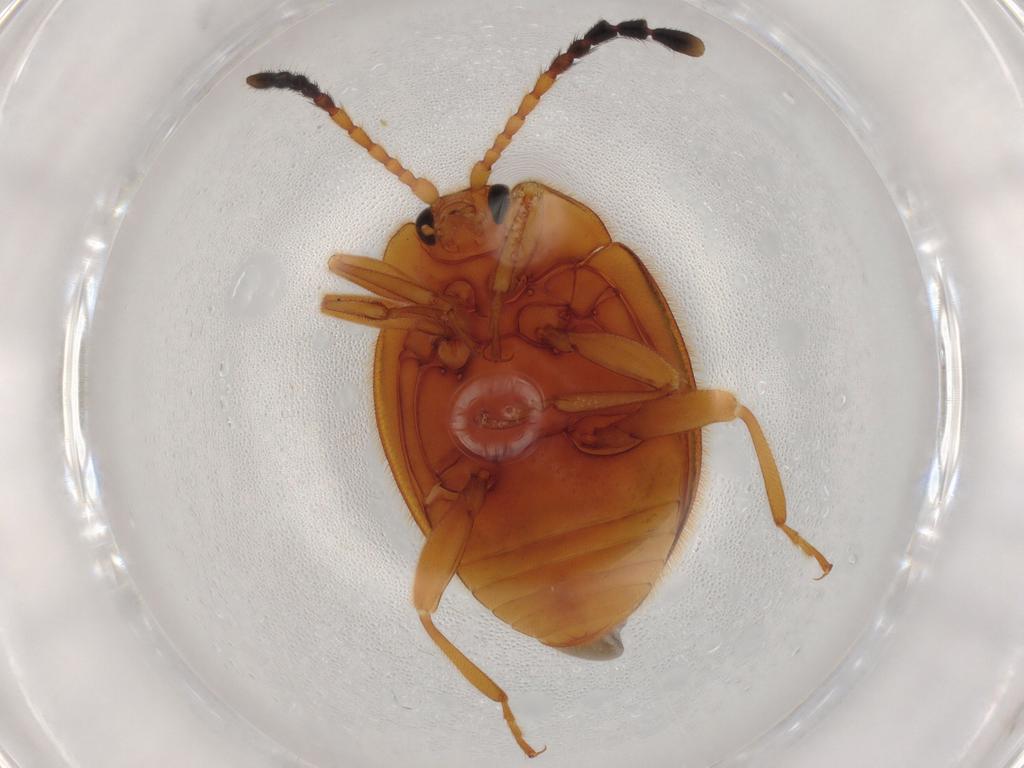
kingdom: Animalia
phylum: Arthropoda
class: Insecta
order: Coleoptera
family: Endomychidae
